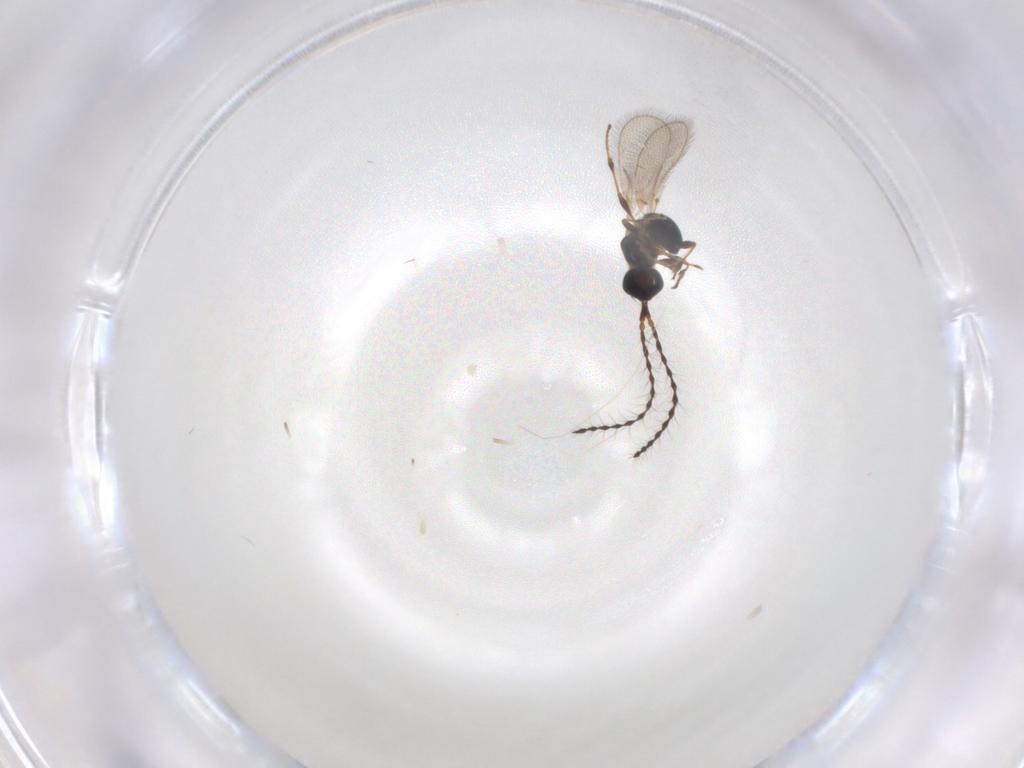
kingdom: Animalia
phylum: Arthropoda
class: Insecta
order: Hymenoptera
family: Diapriidae
